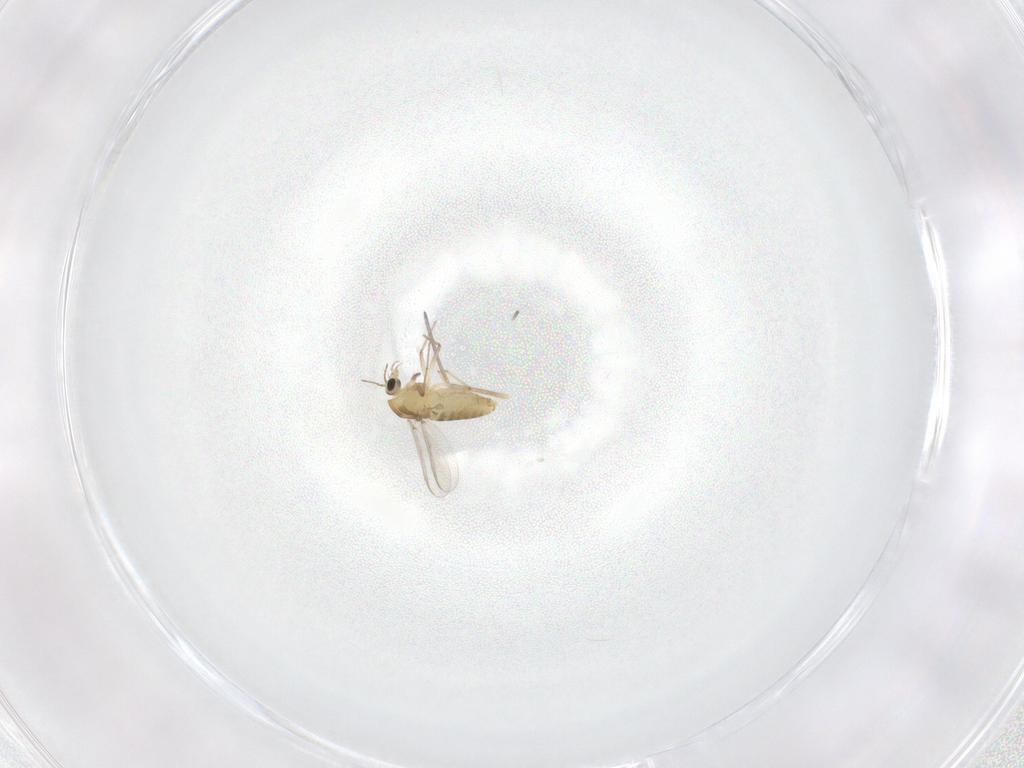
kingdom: Animalia
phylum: Arthropoda
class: Insecta
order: Diptera
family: Chironomidae
